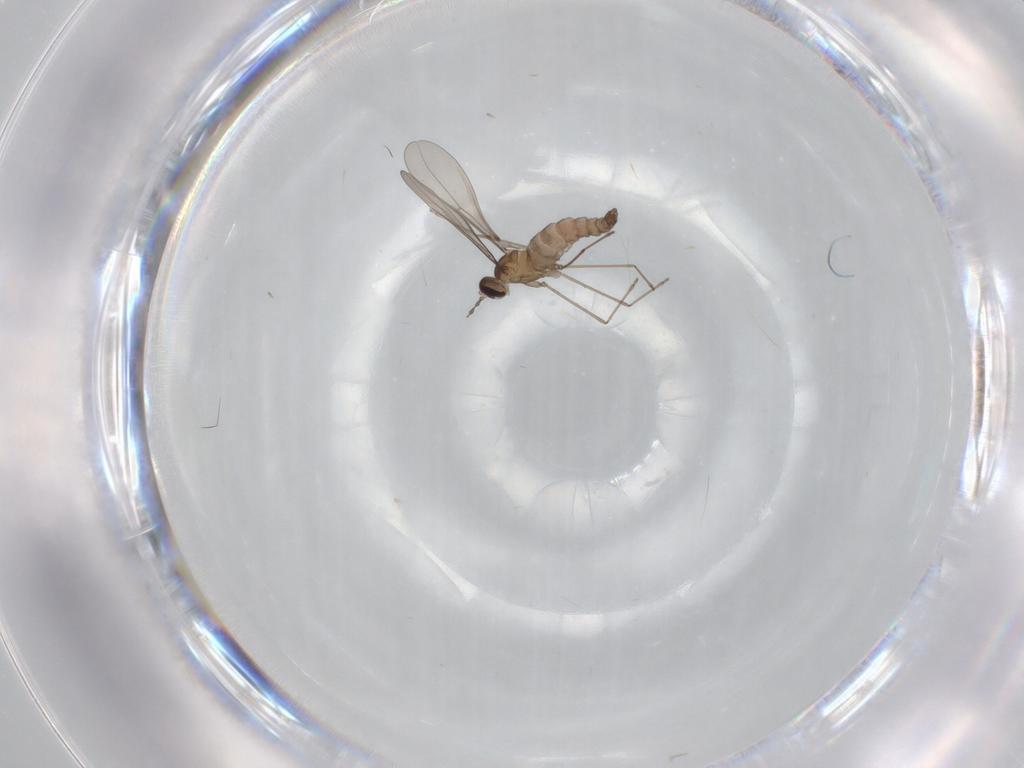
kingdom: Animalia
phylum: Arthropoda
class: Insecta
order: Diptera
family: Cecidomyiidae
